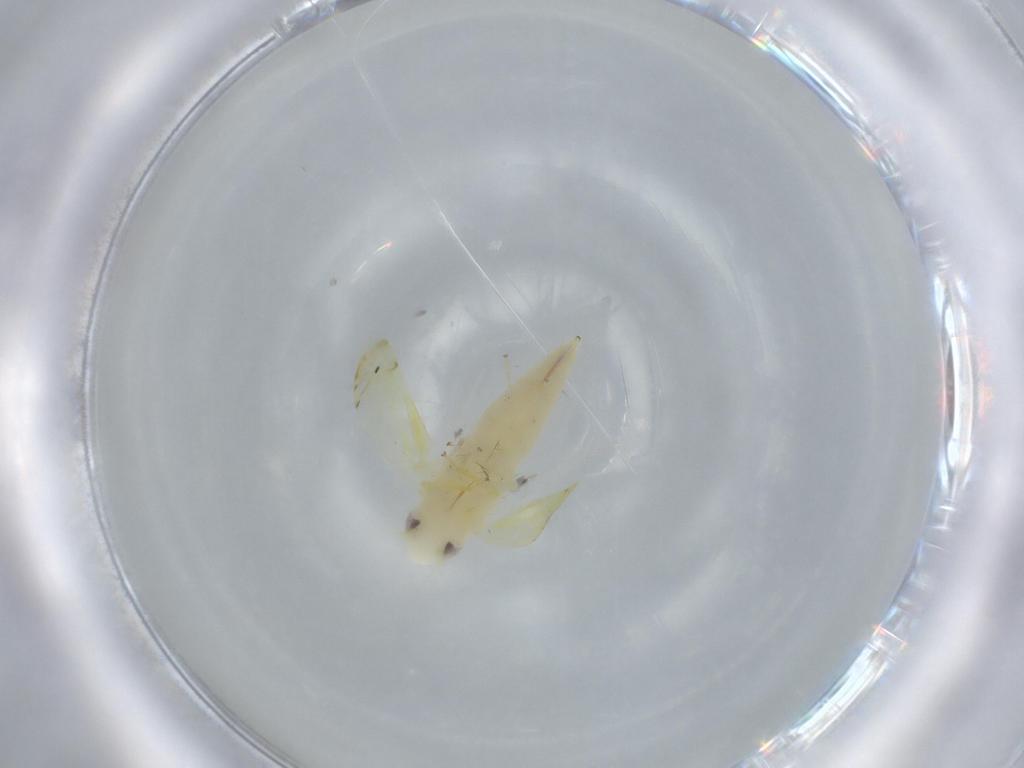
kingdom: Animalia
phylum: Arthropoda
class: Insecta
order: Hemiptera
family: Cicadellidae
